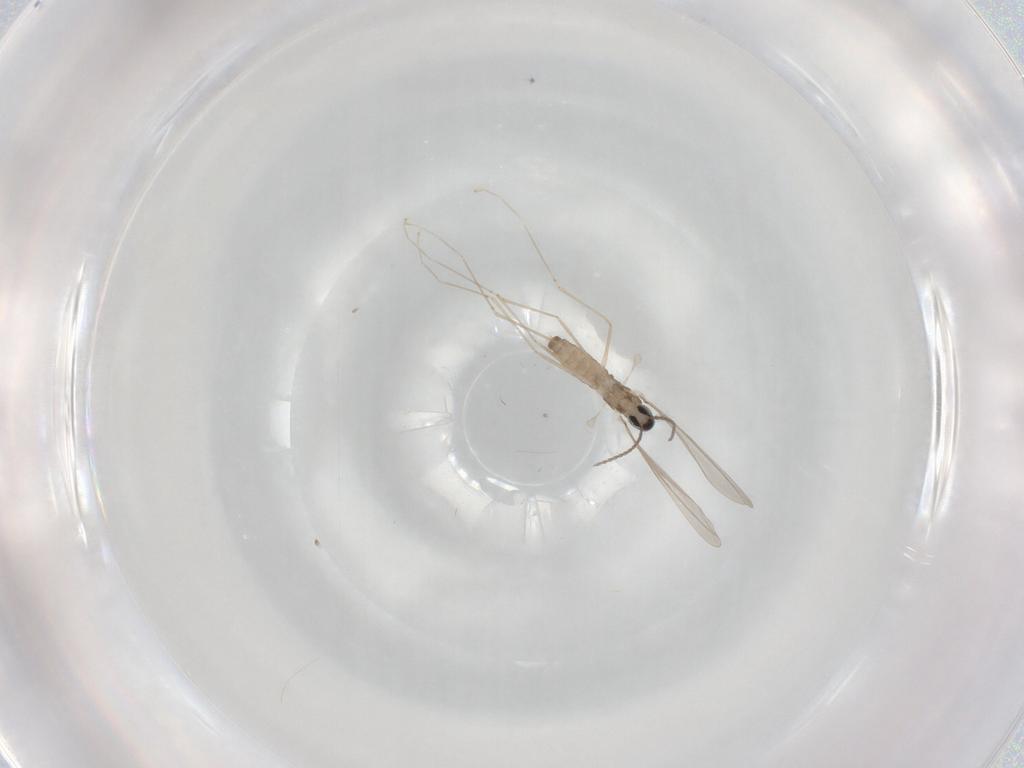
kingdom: Animalia
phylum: Arthropoda
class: Insecta
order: Diptera
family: Cecidomyiidae
